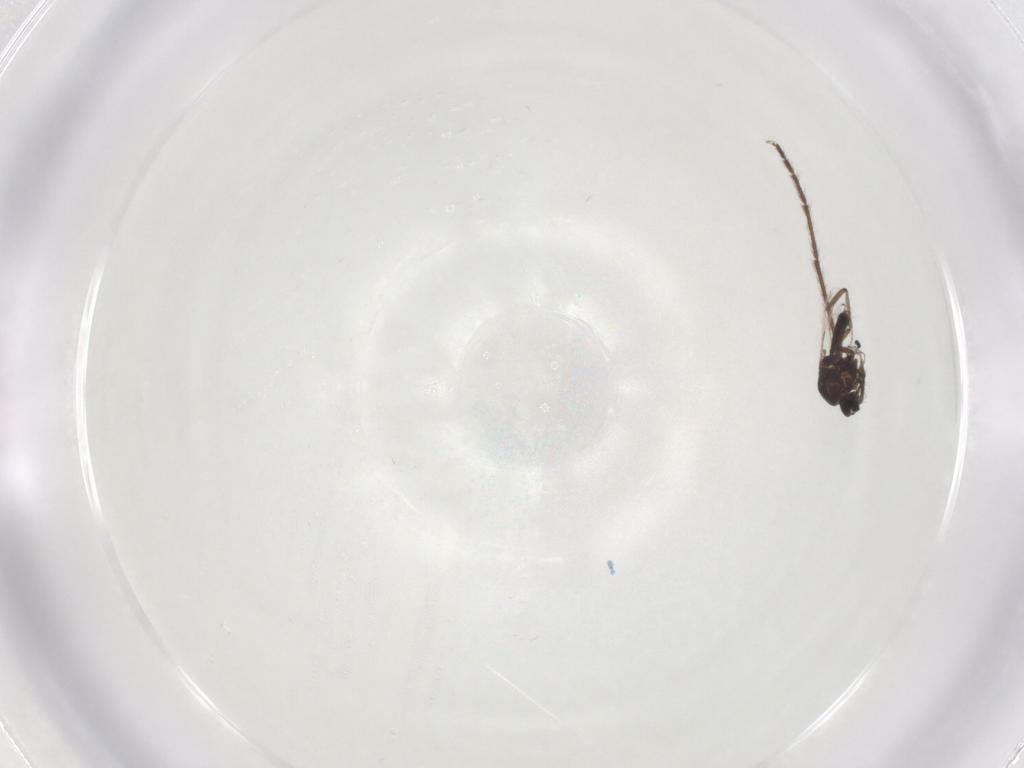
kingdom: Animalia
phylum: Arthropoda
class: Insecta
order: Diptera
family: Limoniidae
